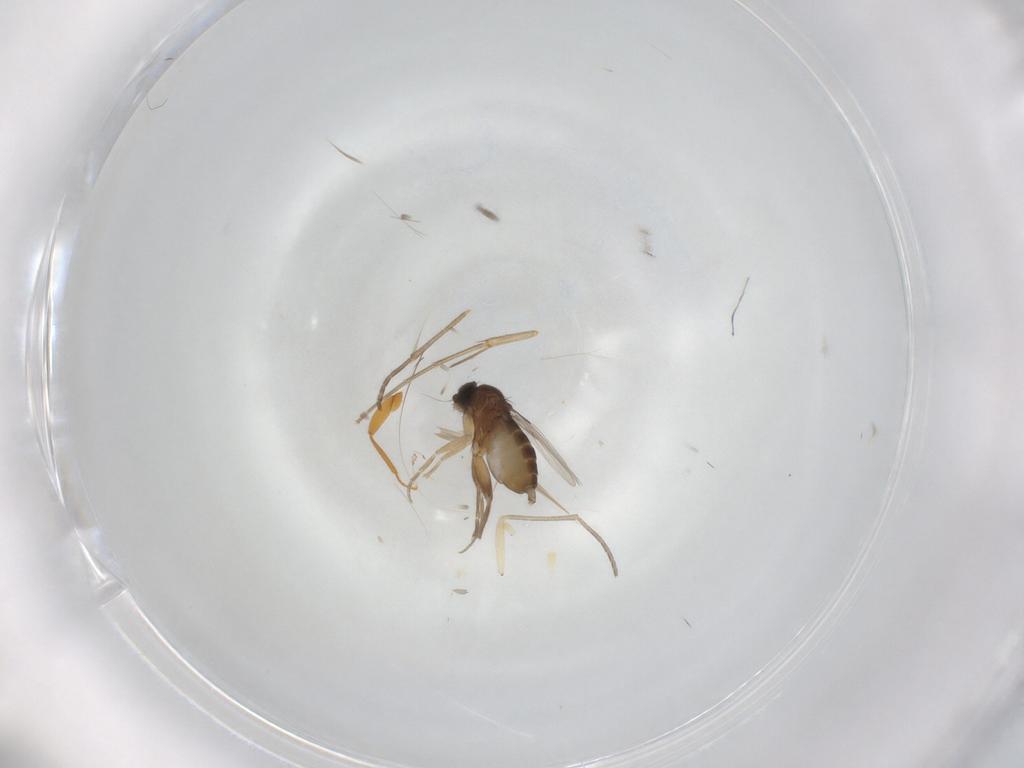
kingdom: Animalia
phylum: Arthropoda
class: Insecta
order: Diptera
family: Phoridae
